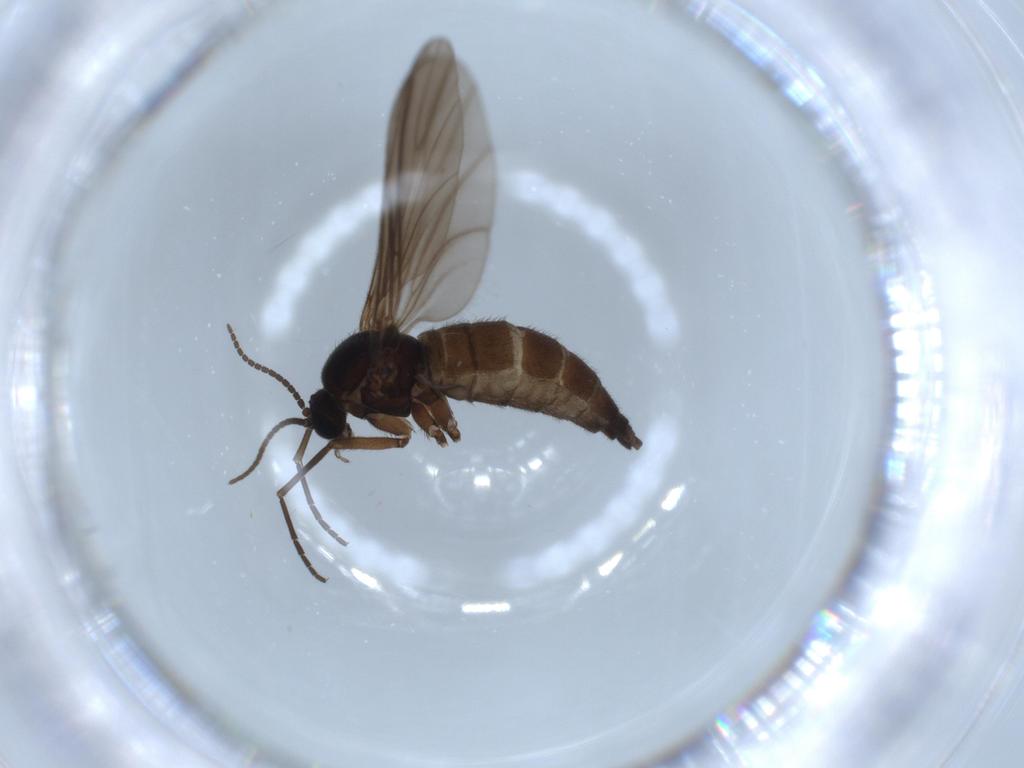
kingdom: Animalia
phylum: Arthropoda
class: Insecta
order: Diptera
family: Sciaridae
